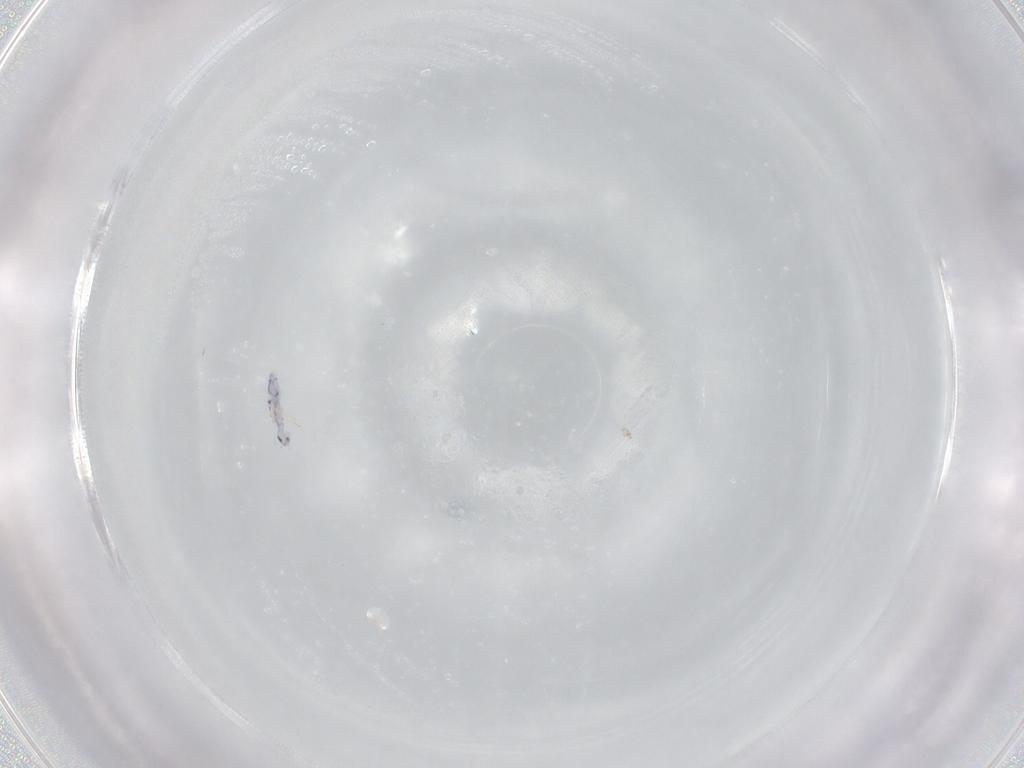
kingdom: Animalia
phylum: Arthropoda
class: Collembola
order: Entomobryomorpha
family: Entomobryidae
